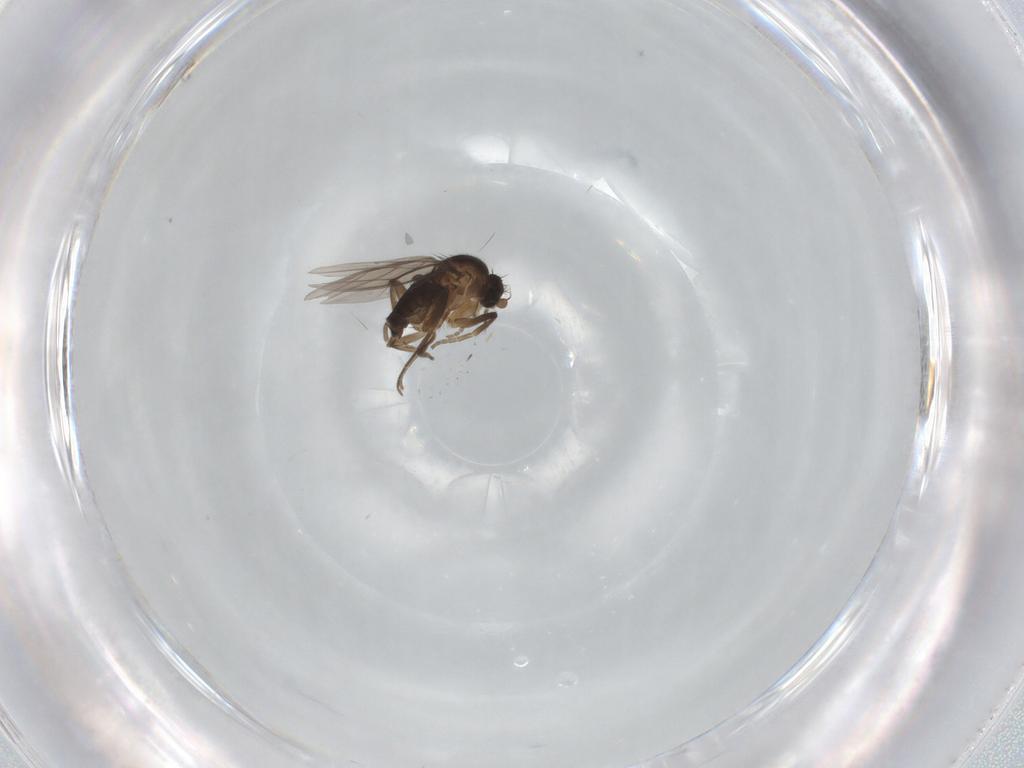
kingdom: Animalia
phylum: Arthropoda
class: Insecta
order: Diptera
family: Phoridae
